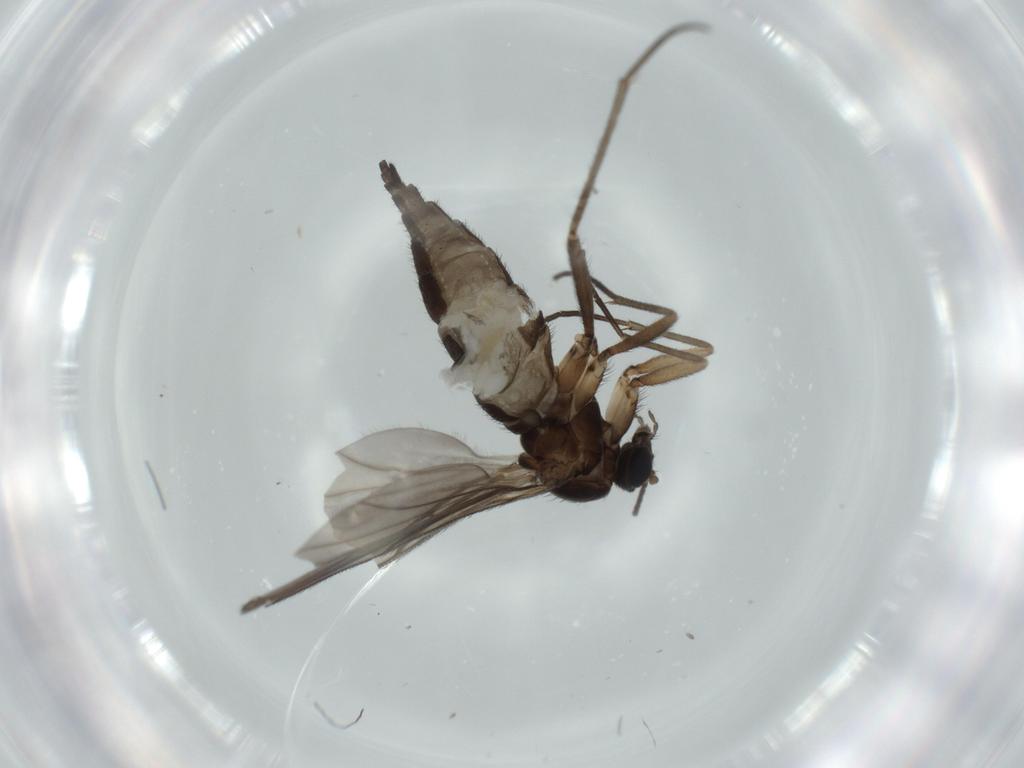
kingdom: Animalia
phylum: Arthropoda
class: Insecta
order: Diptera
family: Sciaridae
